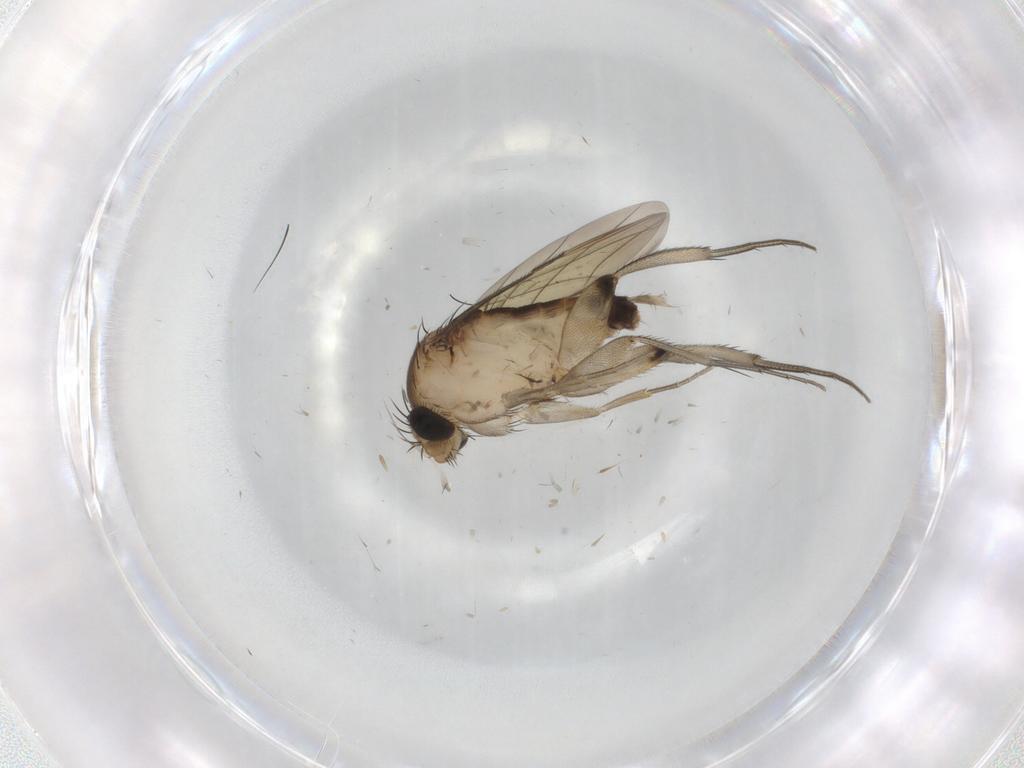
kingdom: Animalia
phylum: Arthropoda
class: Insecta
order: Diptera
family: Phoridae
